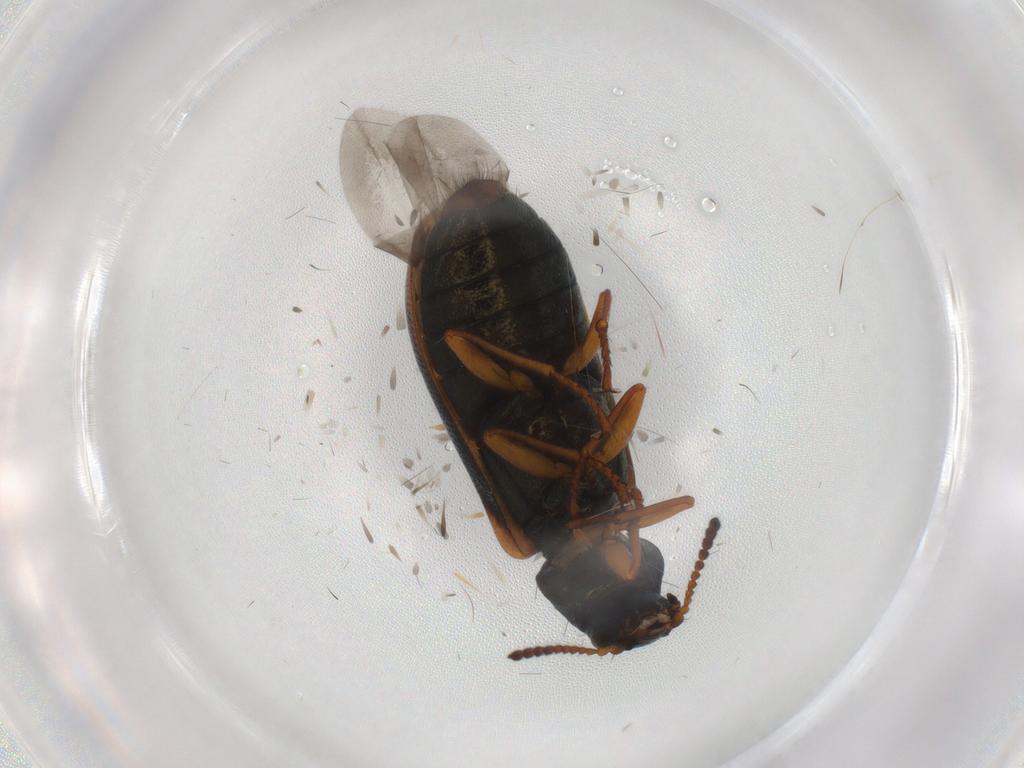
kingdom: Animalia
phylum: Arthropoda
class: Insecta
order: Coleoptera
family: Melyridae
